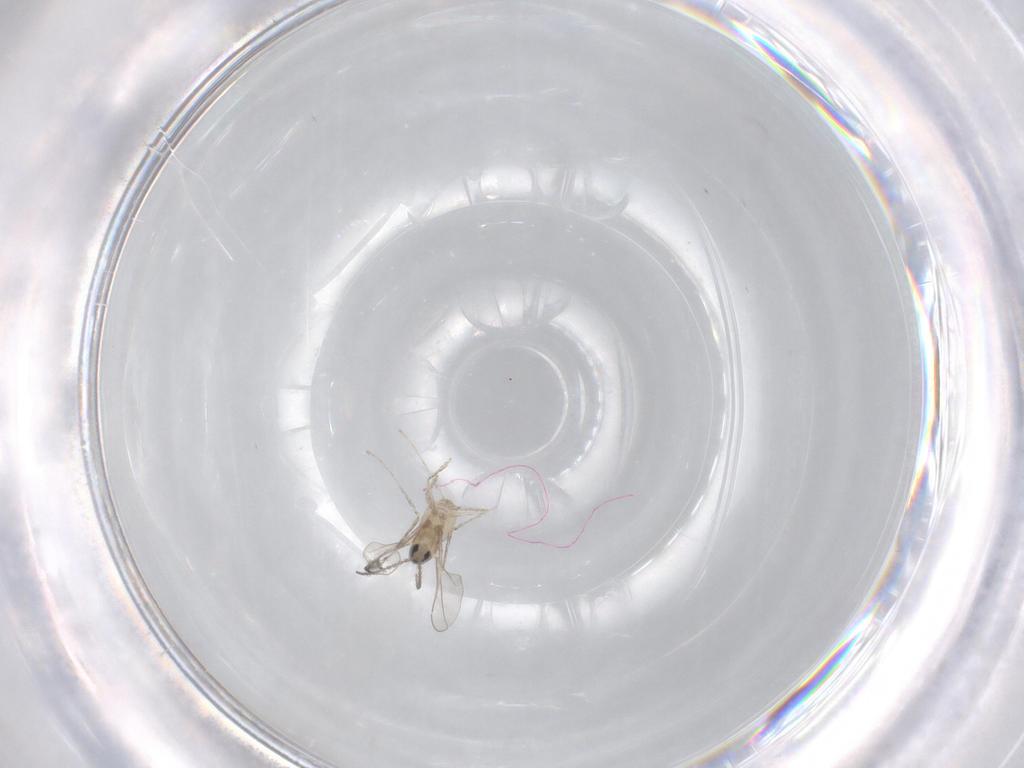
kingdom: Animalia
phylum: Arthropoda
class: Insecta
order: Diptera
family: Cecidomyiidae
